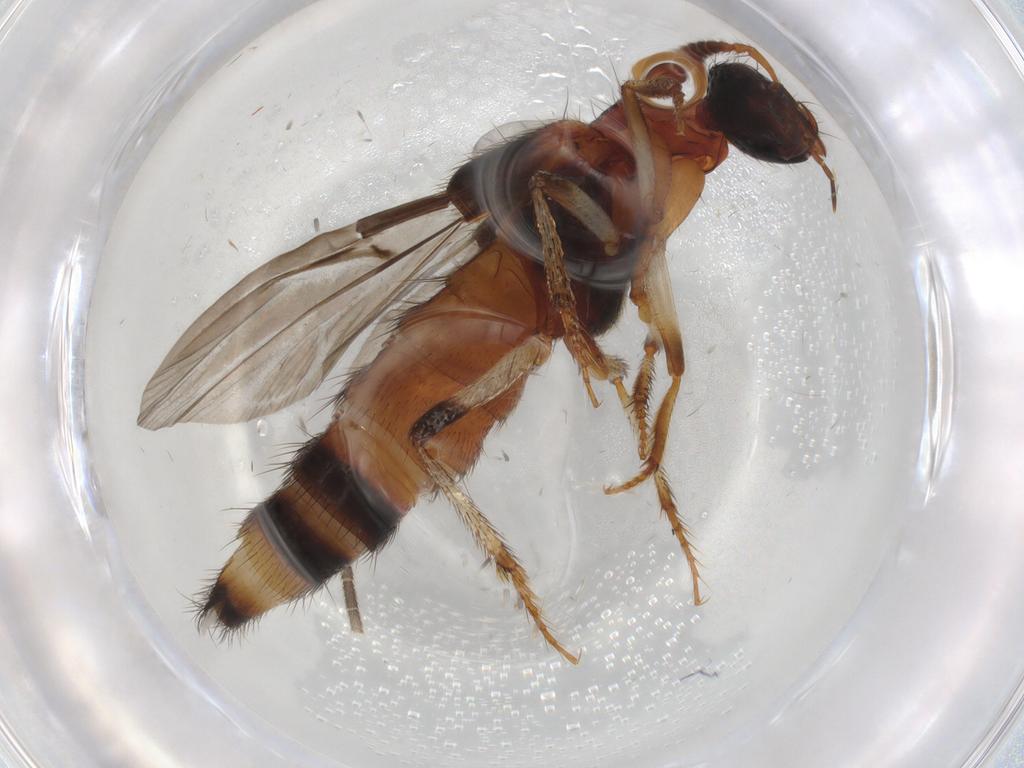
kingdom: Animalia
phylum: Arthropoda
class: Insecta
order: Coleoptera
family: Staphylinidae
